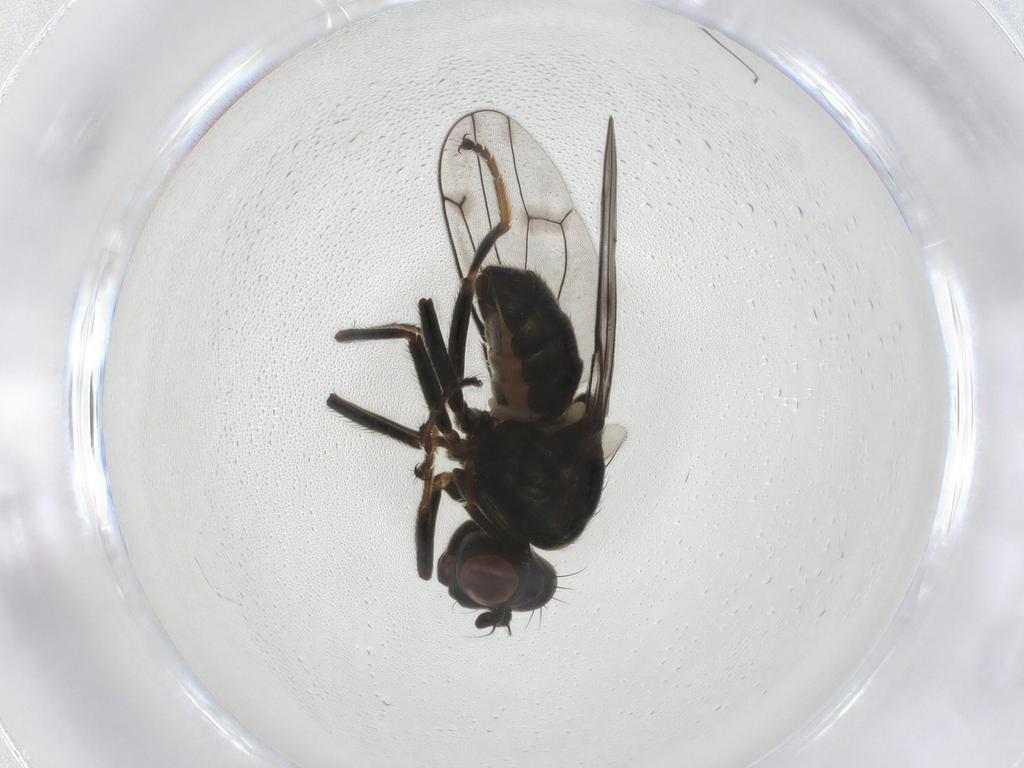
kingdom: Animalia
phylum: Arthropoda
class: Insecta
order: Diptera
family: Ephydridae
